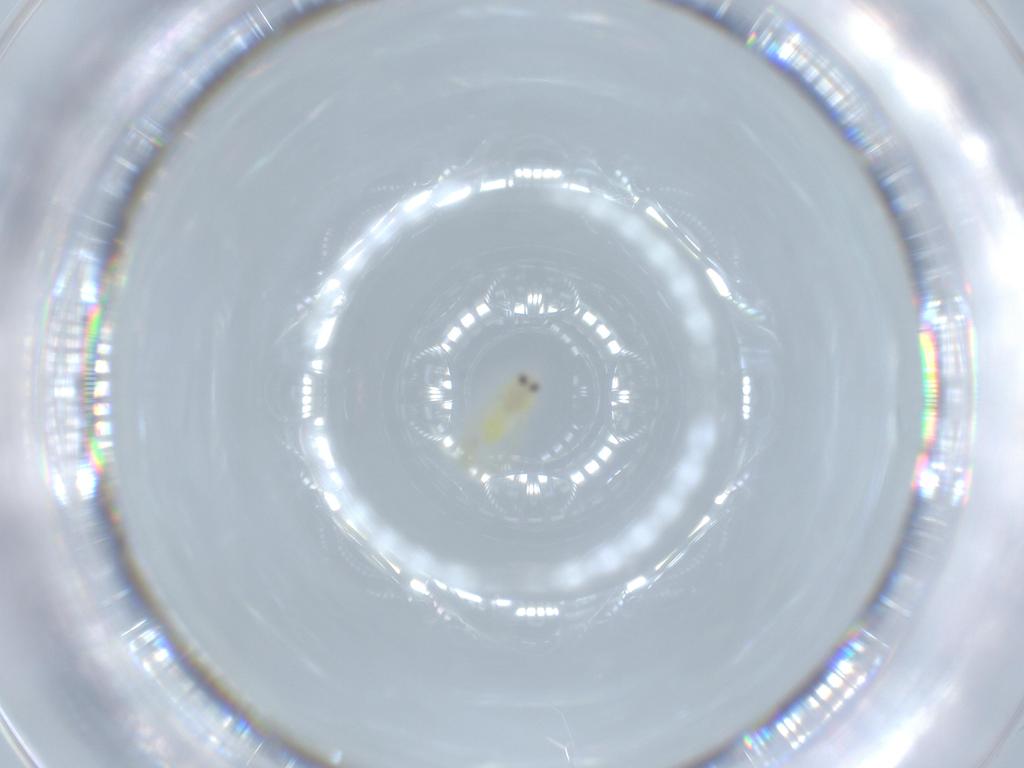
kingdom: Animalia
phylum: Arthropoda
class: Insecta
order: Hemiptera
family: Aleyrodidae
